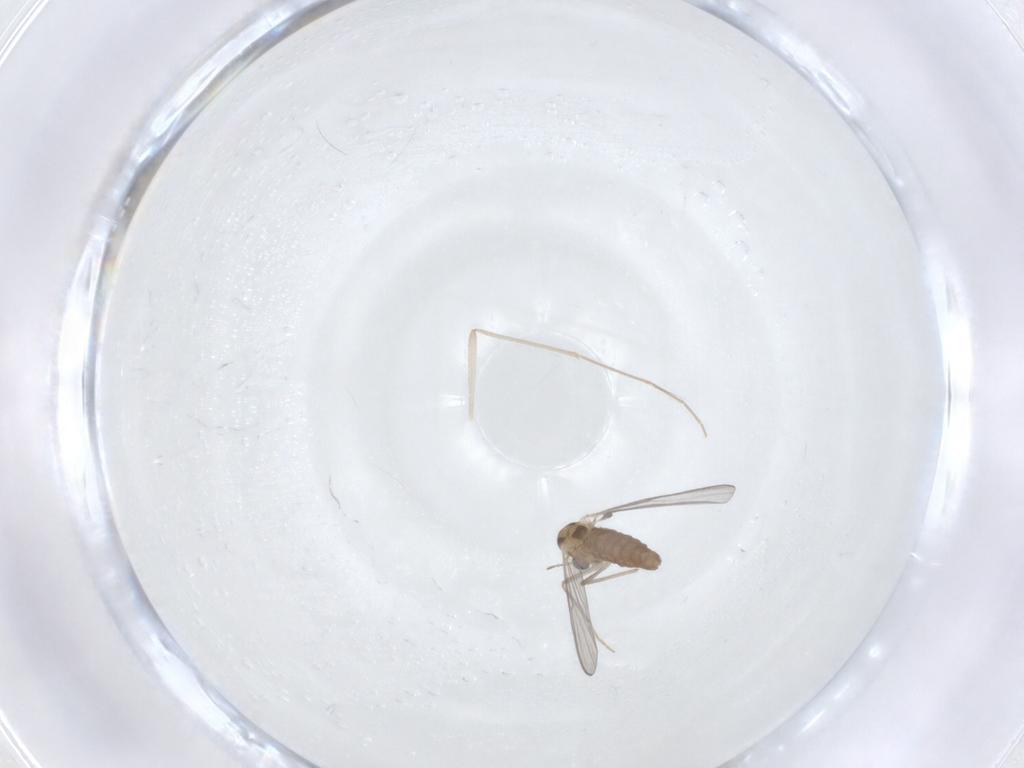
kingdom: Animalia
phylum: Arthropoda
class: Insecta
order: Diptera
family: Chironomidae
